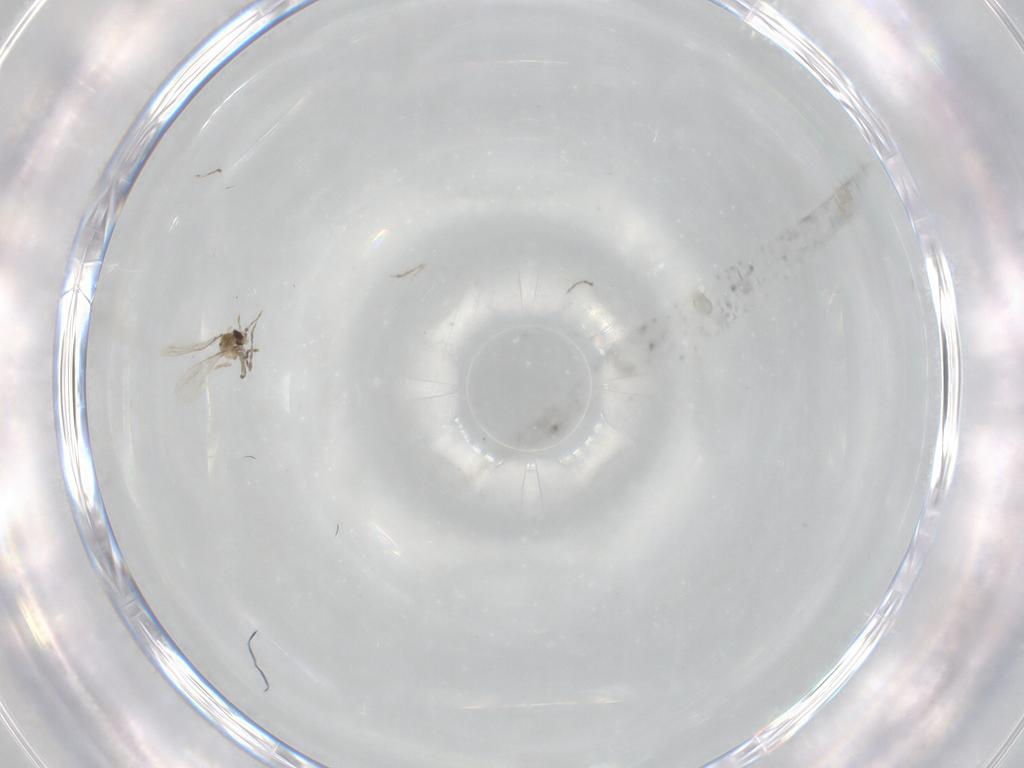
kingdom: Animalia
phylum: Arthropoda
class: Insecta
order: Diptera
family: Cecidomyiidae
